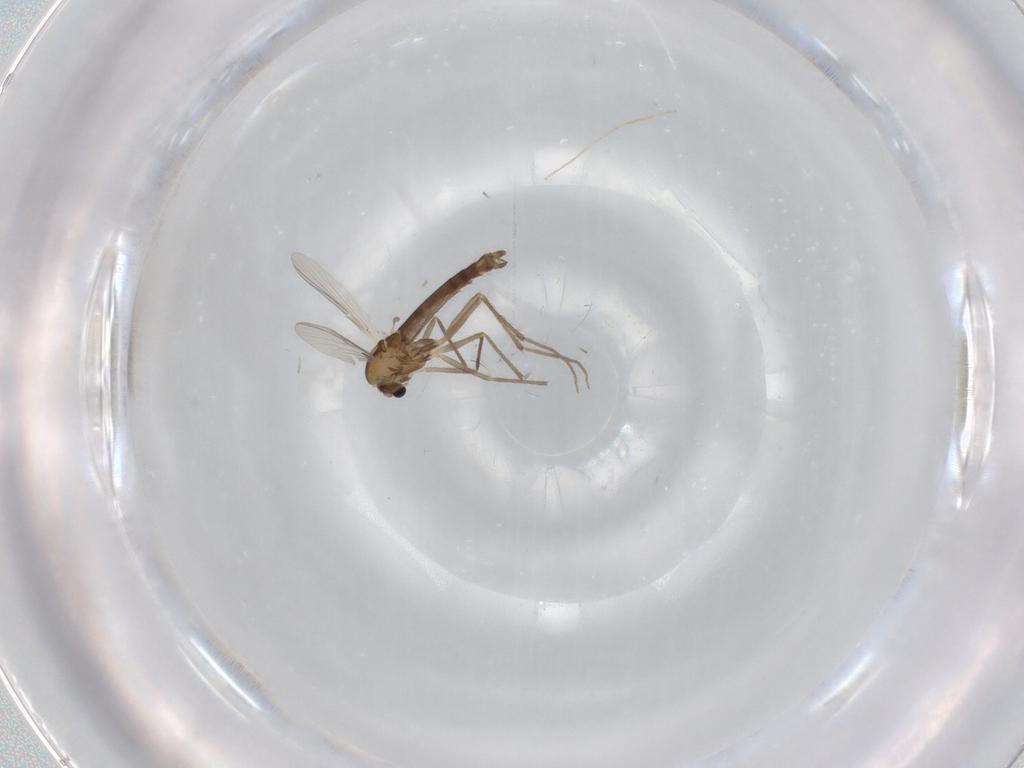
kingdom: Animalia
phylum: Arthropoda
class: Insecta
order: Diptera
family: Chironomidae
